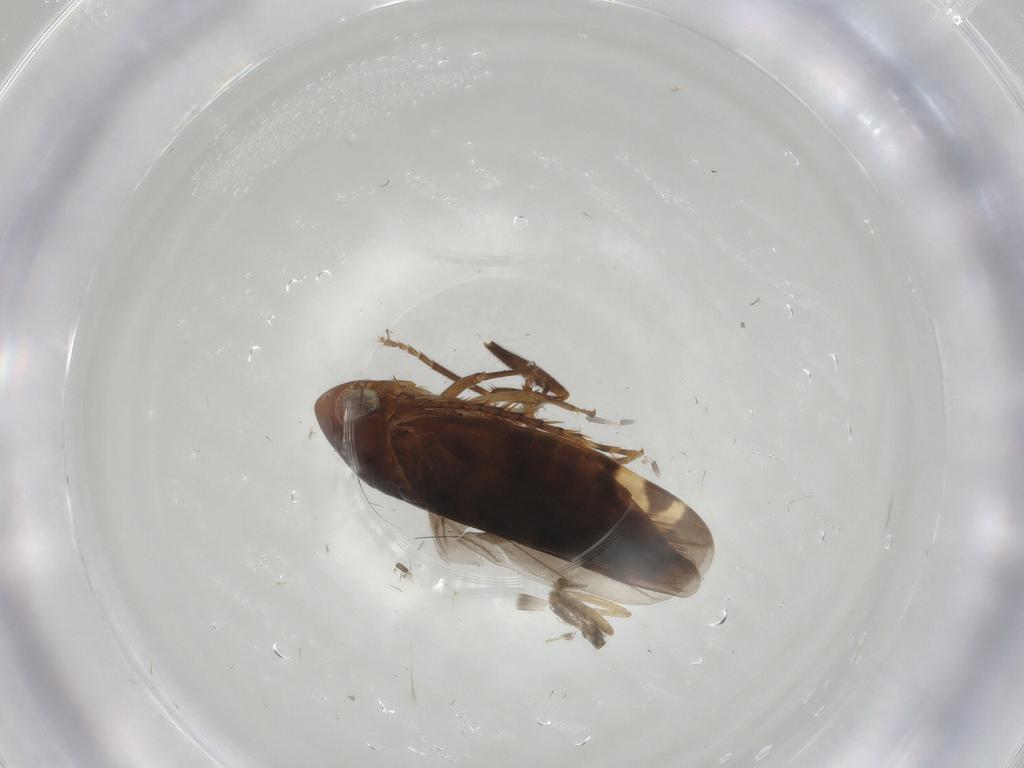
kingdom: Animalia
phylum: Arthropoda
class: Insecta
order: Hemiptera
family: Cicadellidae
